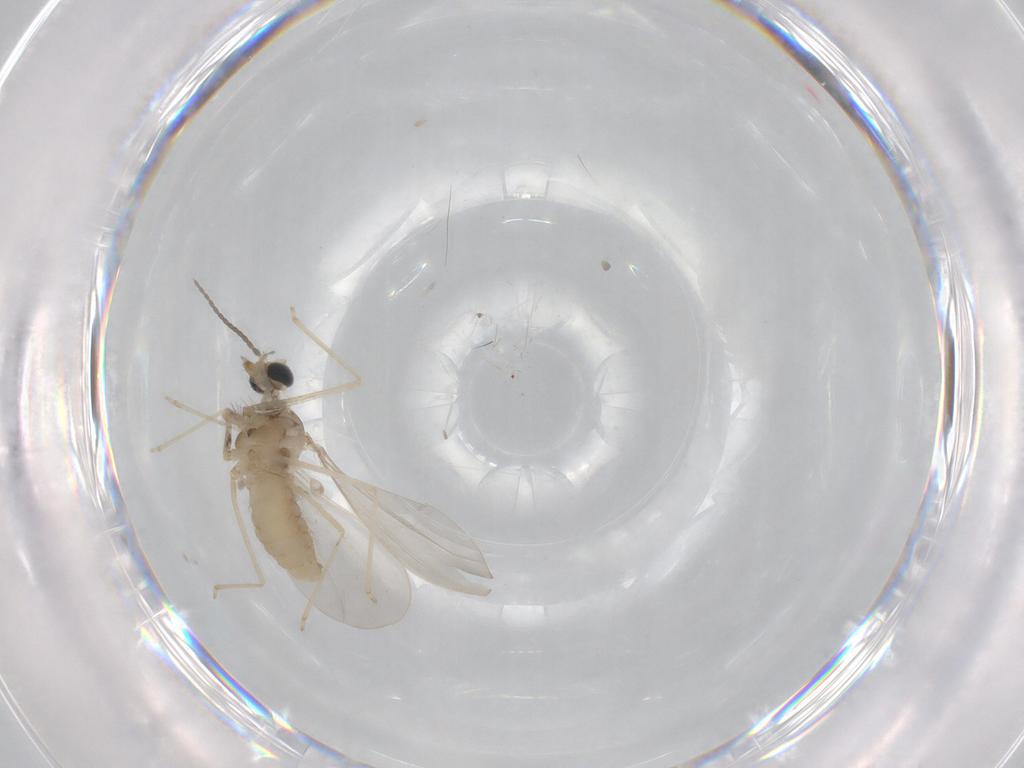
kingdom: Animalia
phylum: Arthropoda
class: Insecta
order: Diptera
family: Cecidomyiidae
